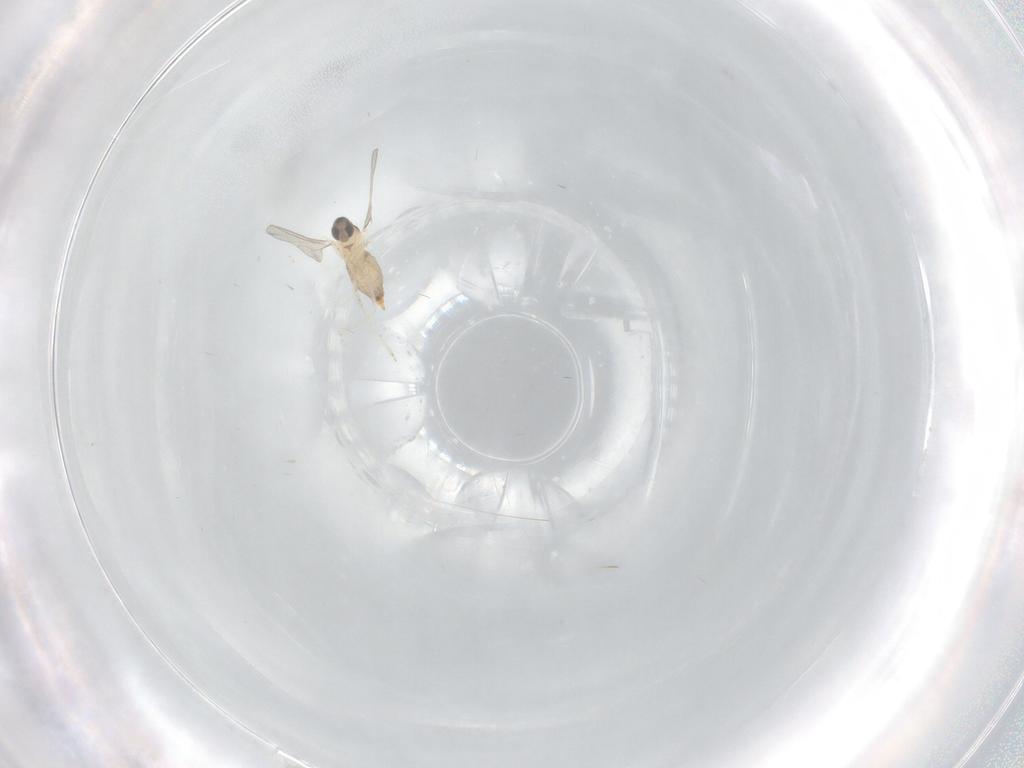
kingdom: Animalia
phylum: Arthropoda
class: Insecta
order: Diptera
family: Cecidomyiidae
